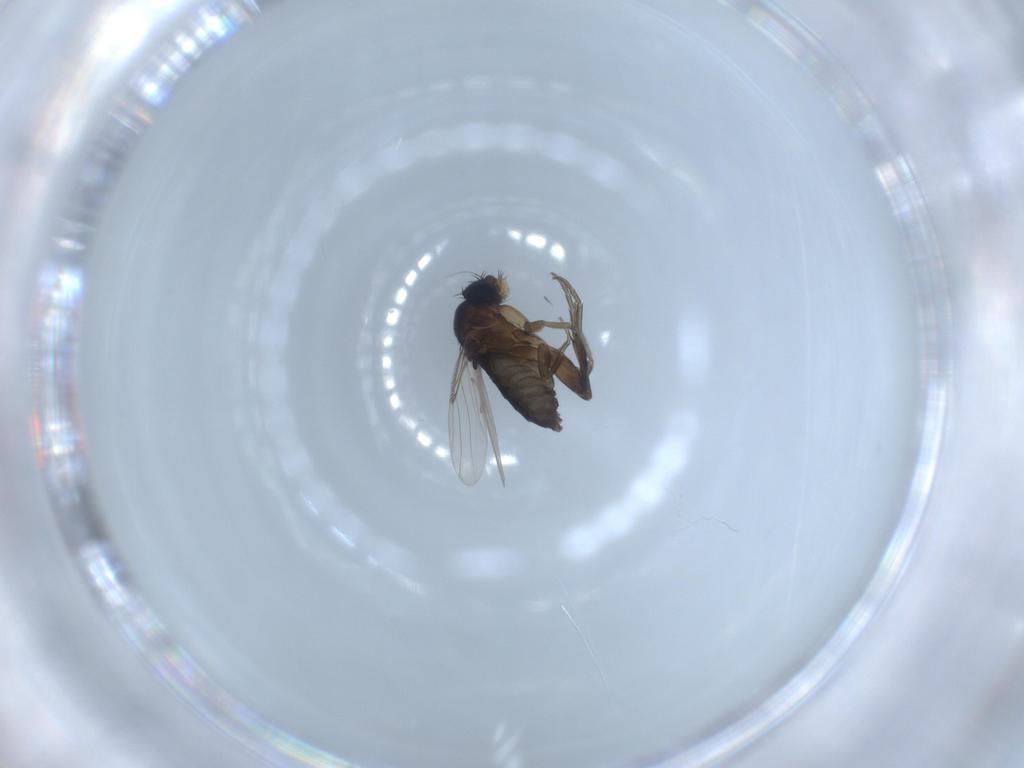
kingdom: Animalia
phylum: Arthropoda
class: Insecta
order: Diptera
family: Phoridae
